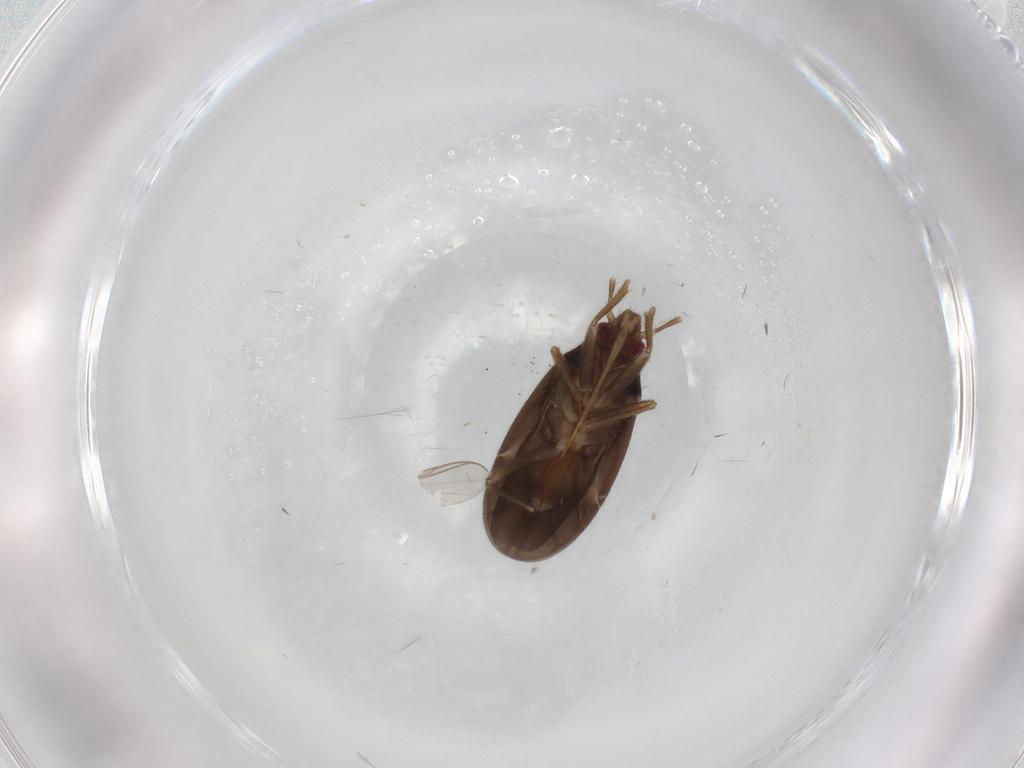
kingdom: Animalia
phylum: Arthropoda
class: Insecta
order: Hemiptera
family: Ceratocombidae
